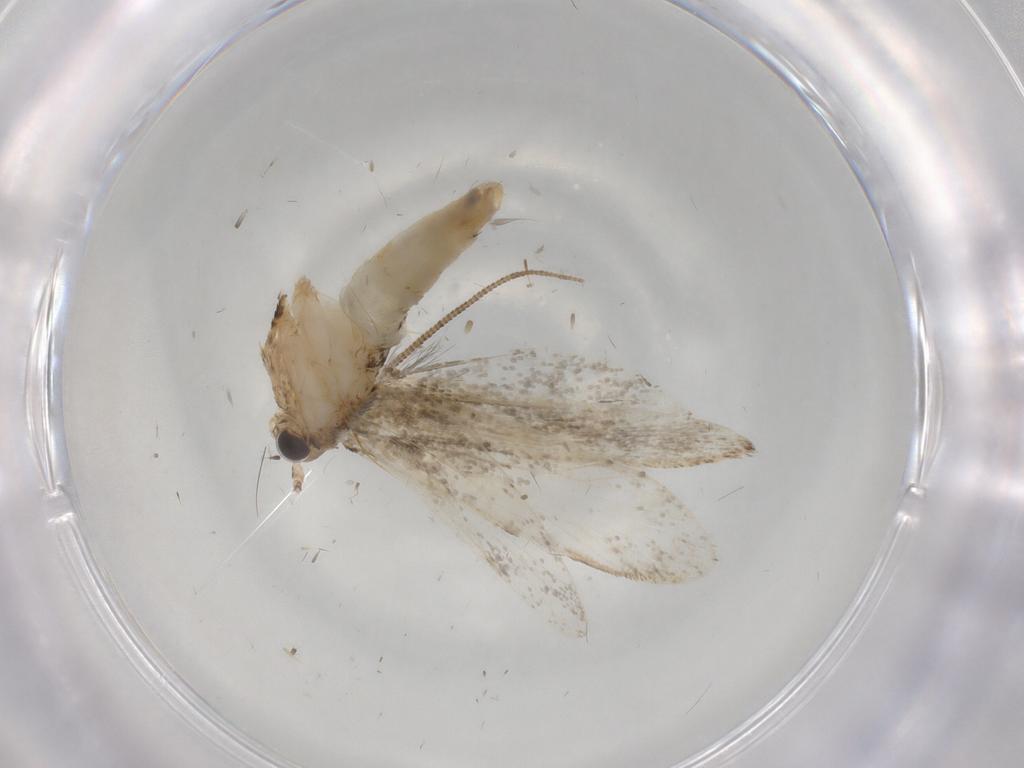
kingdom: Animalia
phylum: Arthropoda
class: Insecta
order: Lepidoptera
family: Tineidae
